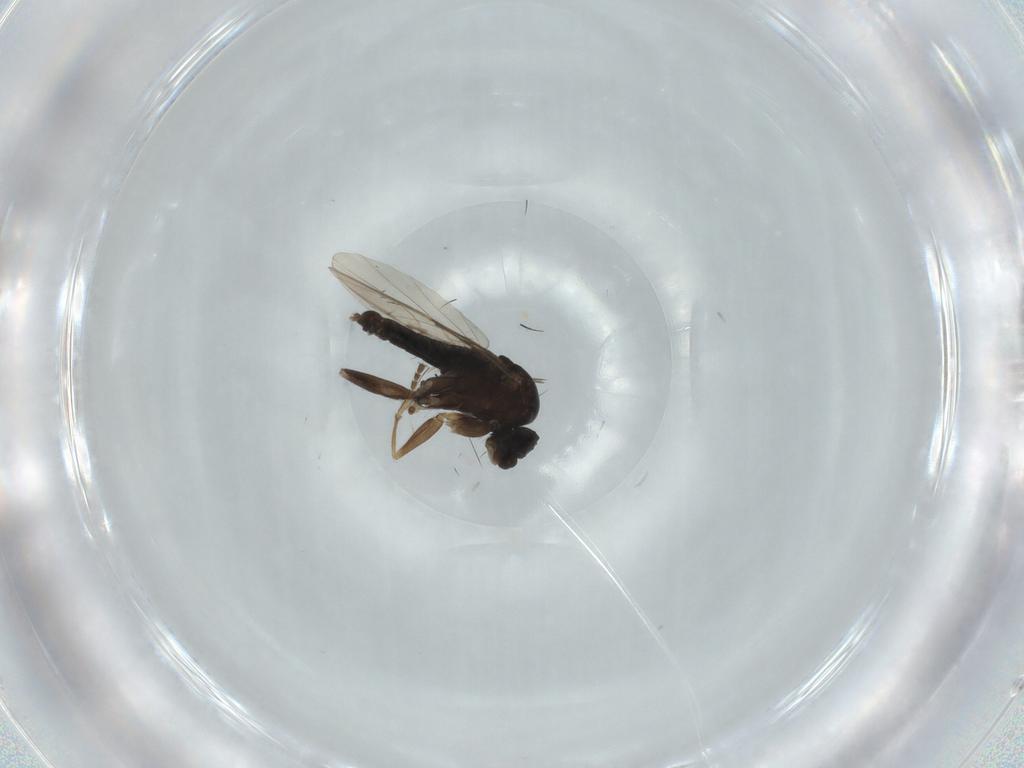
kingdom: Animalia
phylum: Arthropoda
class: Insecta
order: Diptera
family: Phoridae
